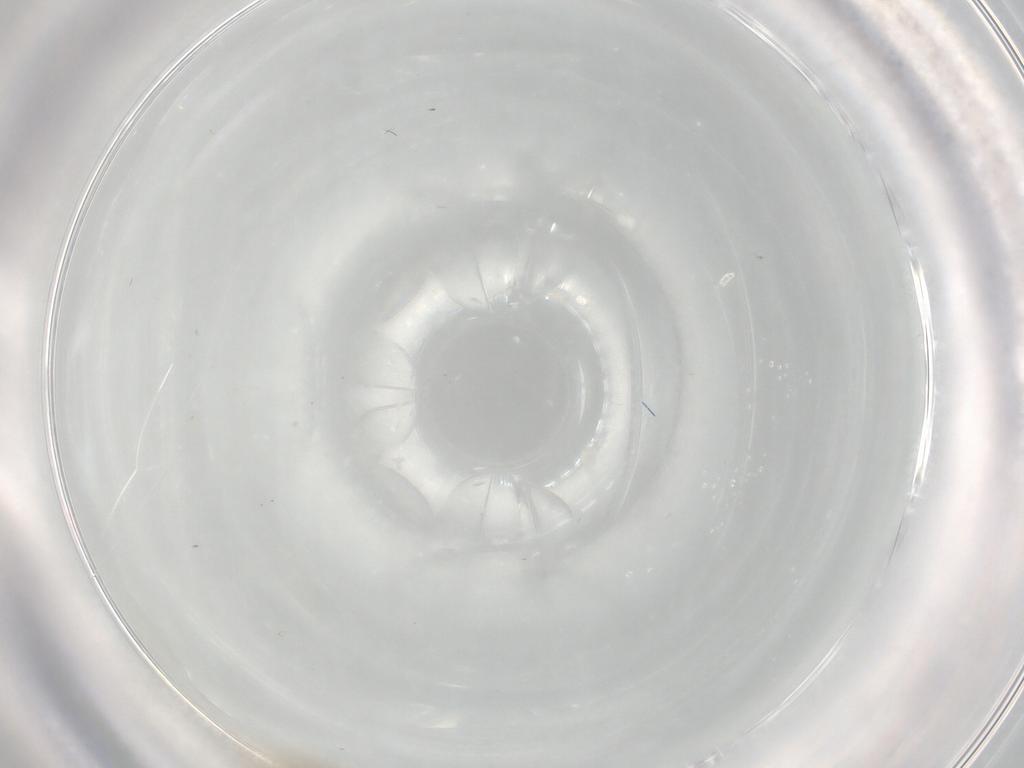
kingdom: Animalia
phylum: Arthropoda
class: Insecta
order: Diptera
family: Cecidomyiidae
